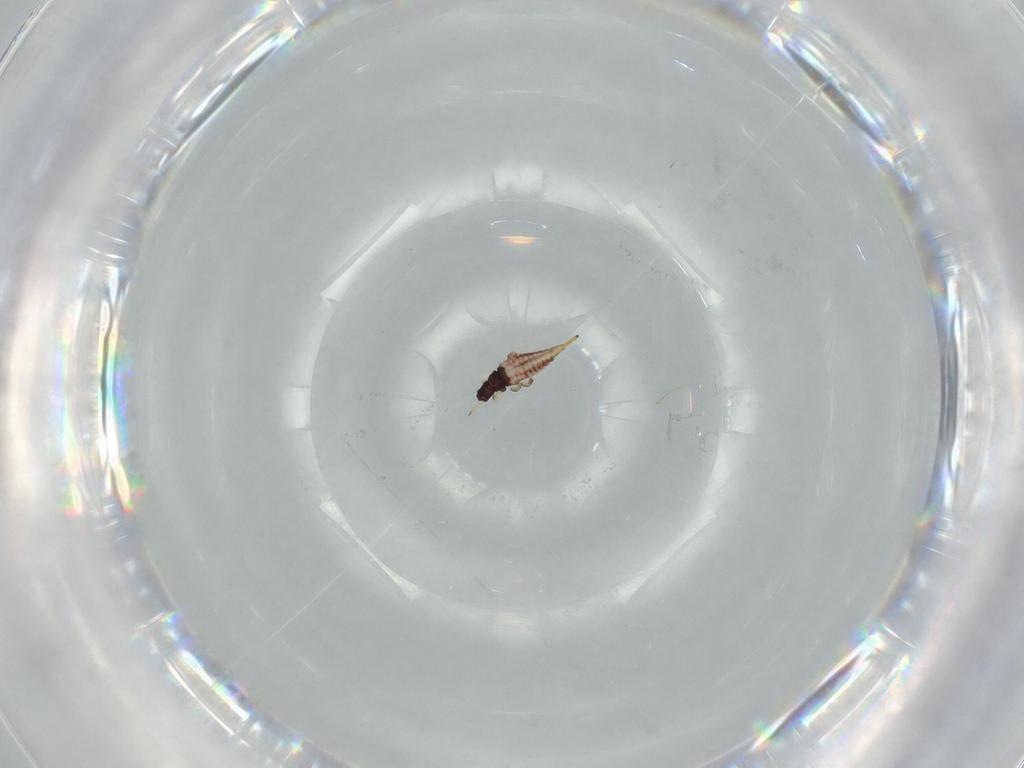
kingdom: Animalia
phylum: Arthropoda
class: Insecta
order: Thysanoptera
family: Phlaeothripidae
